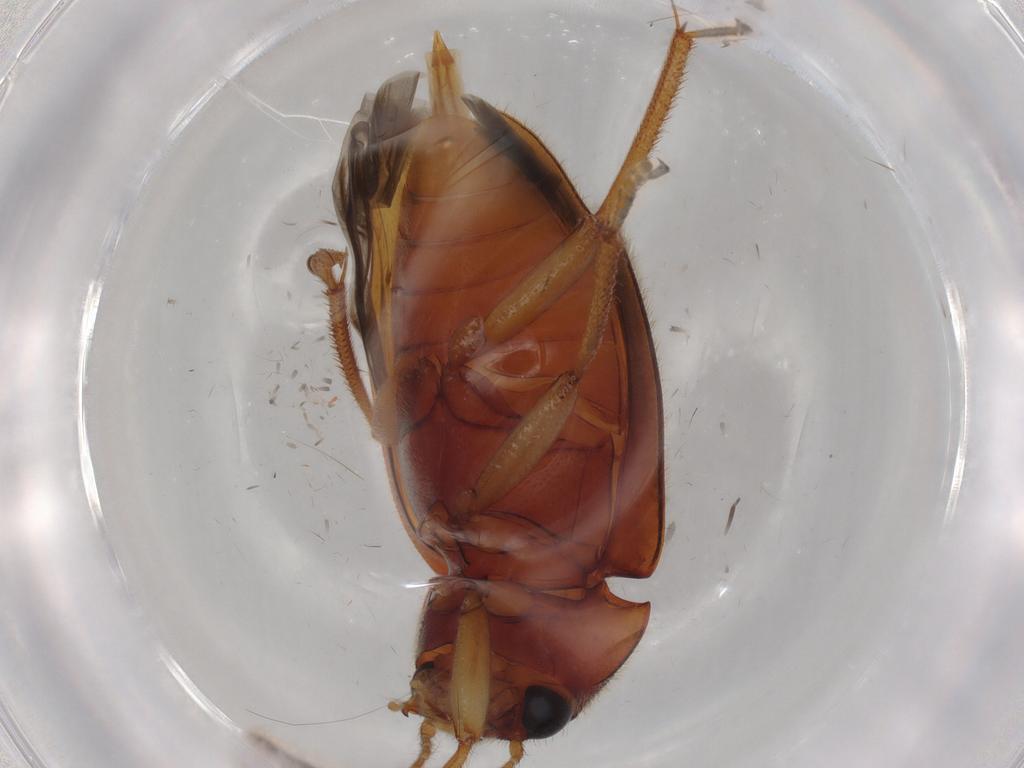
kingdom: Animalia
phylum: Arthropoda
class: Insecta
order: Coleoptera
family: Ptilodactylidae
